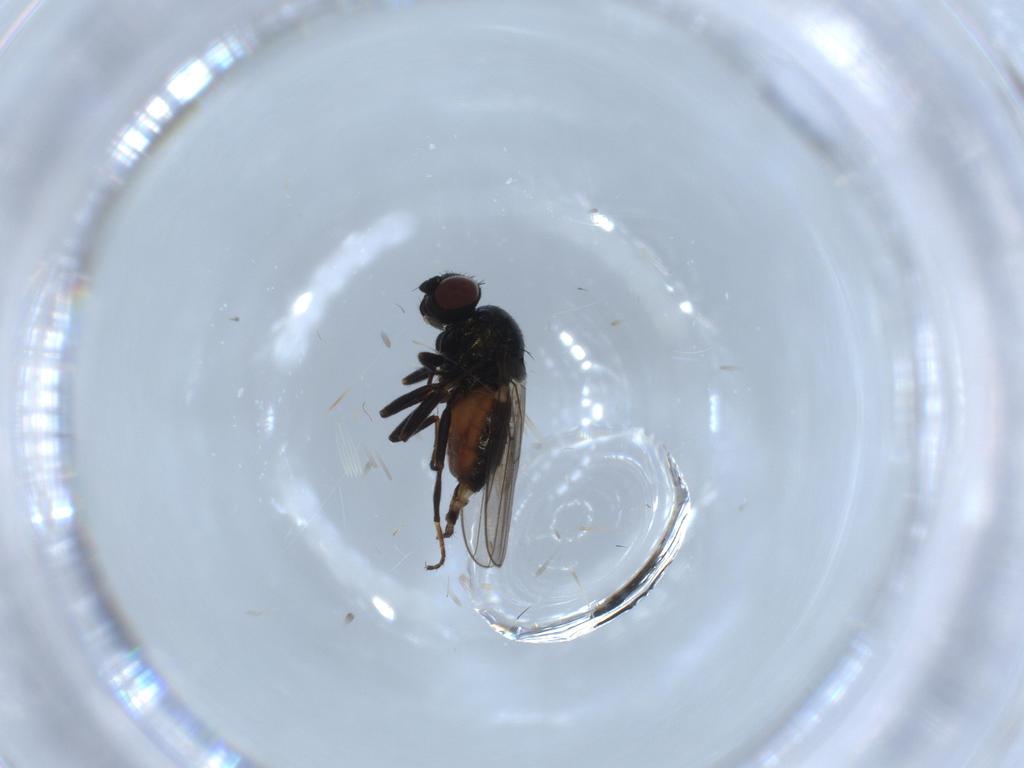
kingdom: Animalia
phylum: Arthropoda
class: Insecta
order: Diptera
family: Chloropidae
